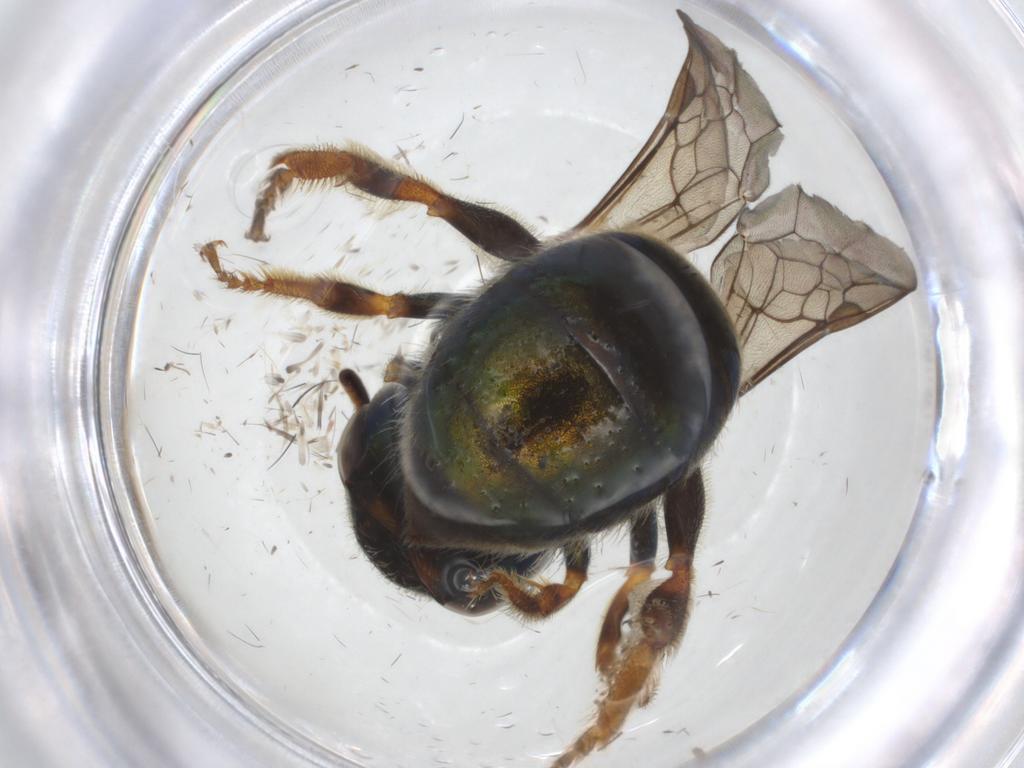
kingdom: Animalia
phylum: Arthropoda
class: Insecta
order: Hymenoptera
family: Halictidae
